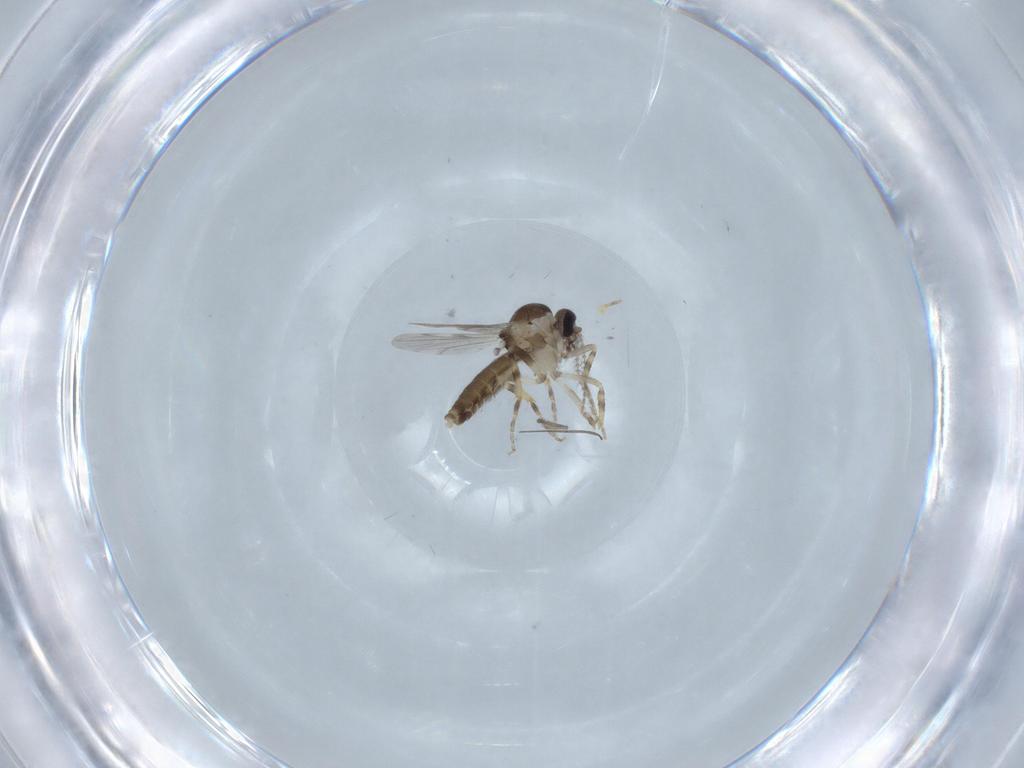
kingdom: Animalia
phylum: Arthropoda
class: Insecta
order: Diptera
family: Ceratopogonidae
